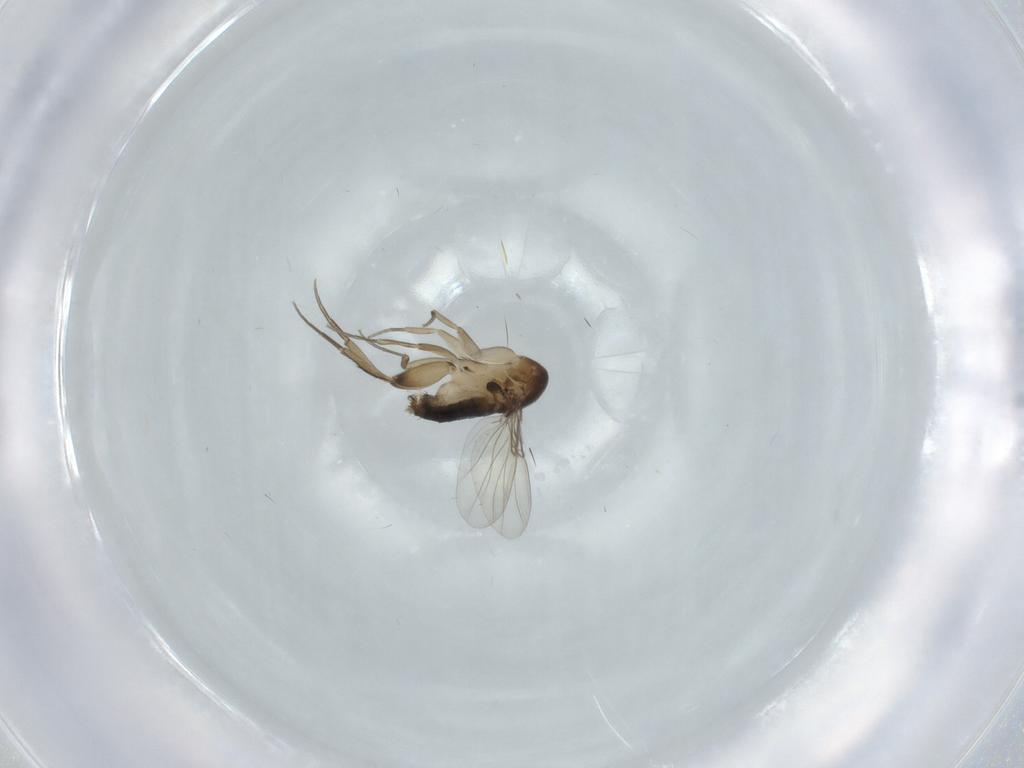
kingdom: Animalia
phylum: Arthropoda
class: Insecta
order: Diptera
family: Phoridae
